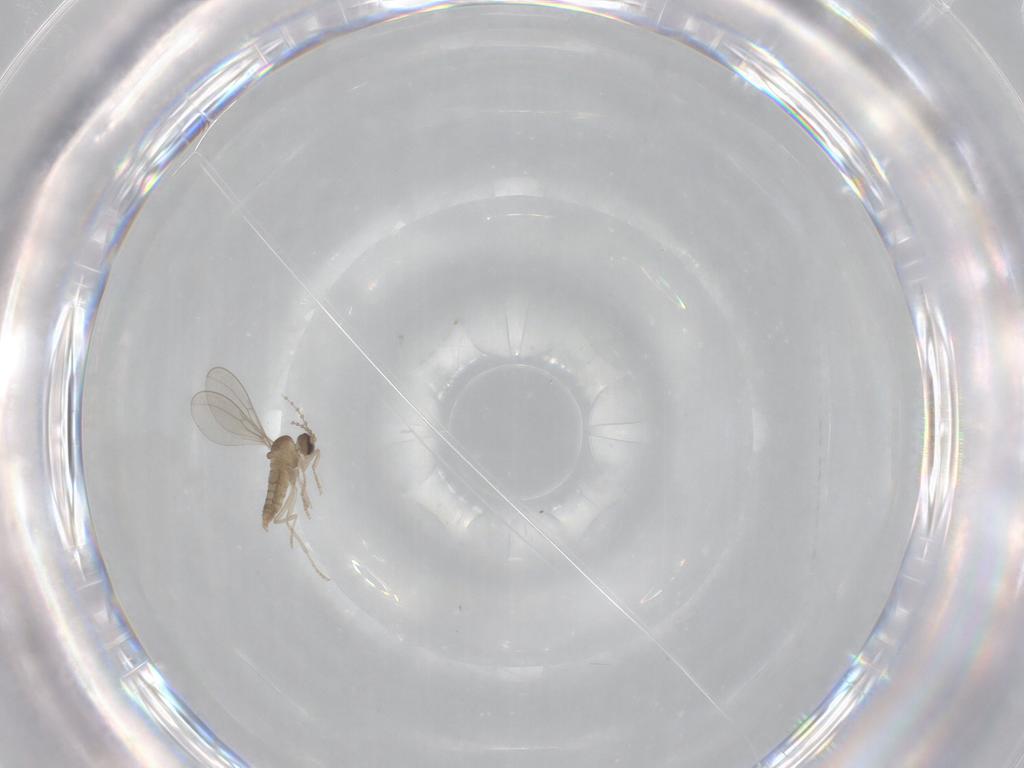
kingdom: Animalia
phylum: Arthropoda
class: Insecta
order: Diptera
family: Cecidomyiidae
